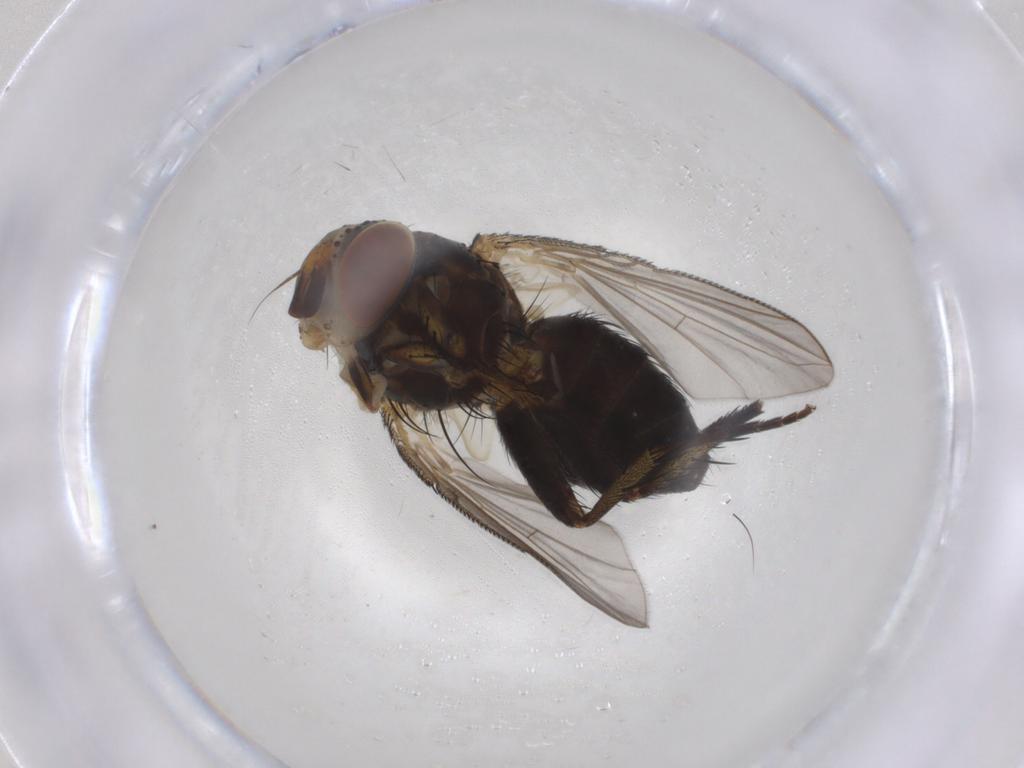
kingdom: Animalia
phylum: Arthropoda
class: Insecta
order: Diptera
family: Tachinidae
